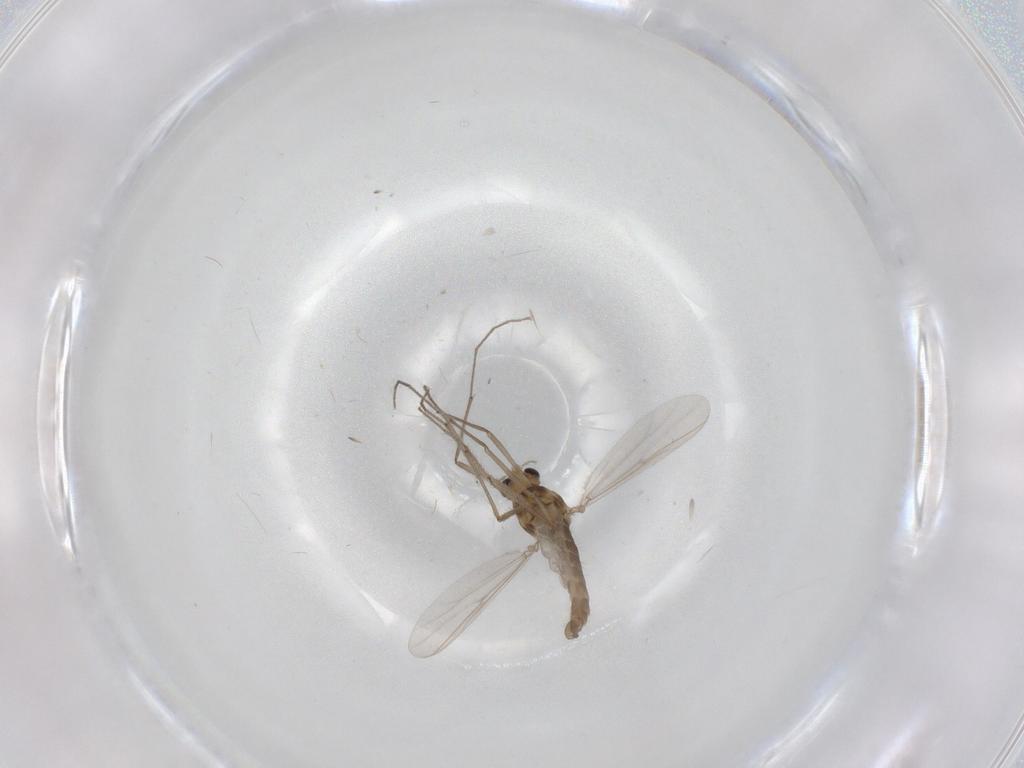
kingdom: Animalia
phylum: Arthropoda
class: Insecta
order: Diptera
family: Chironomidae
